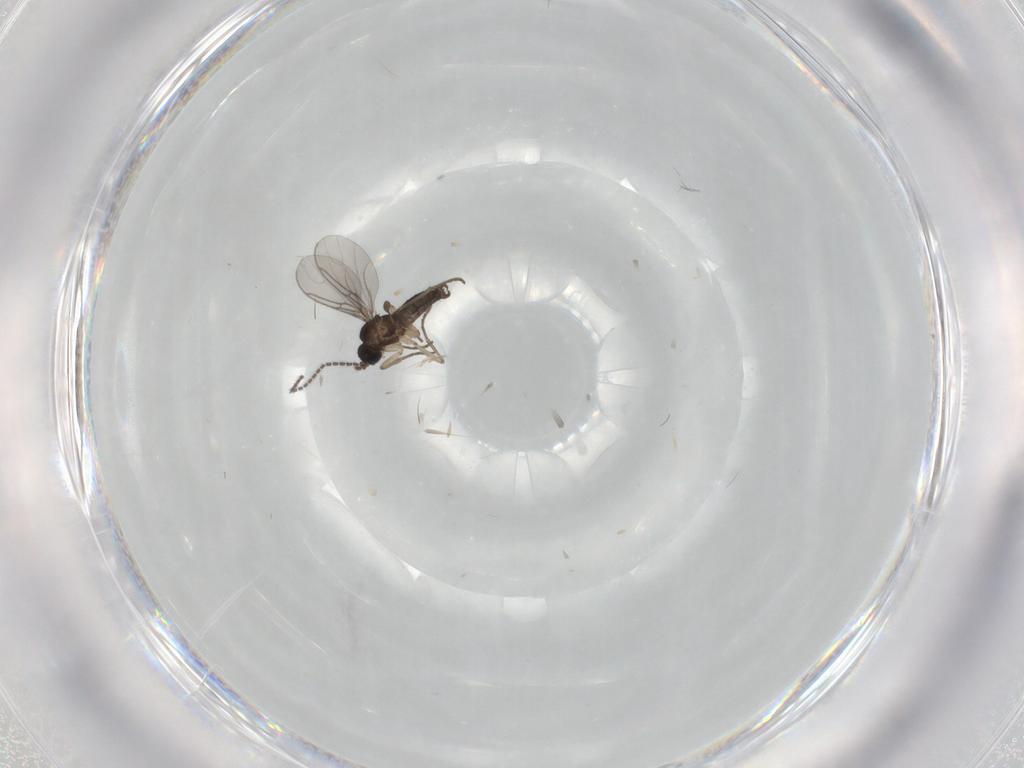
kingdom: Animalia
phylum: Arthropoda
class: Insecta
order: Diptera
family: Sciaridae
